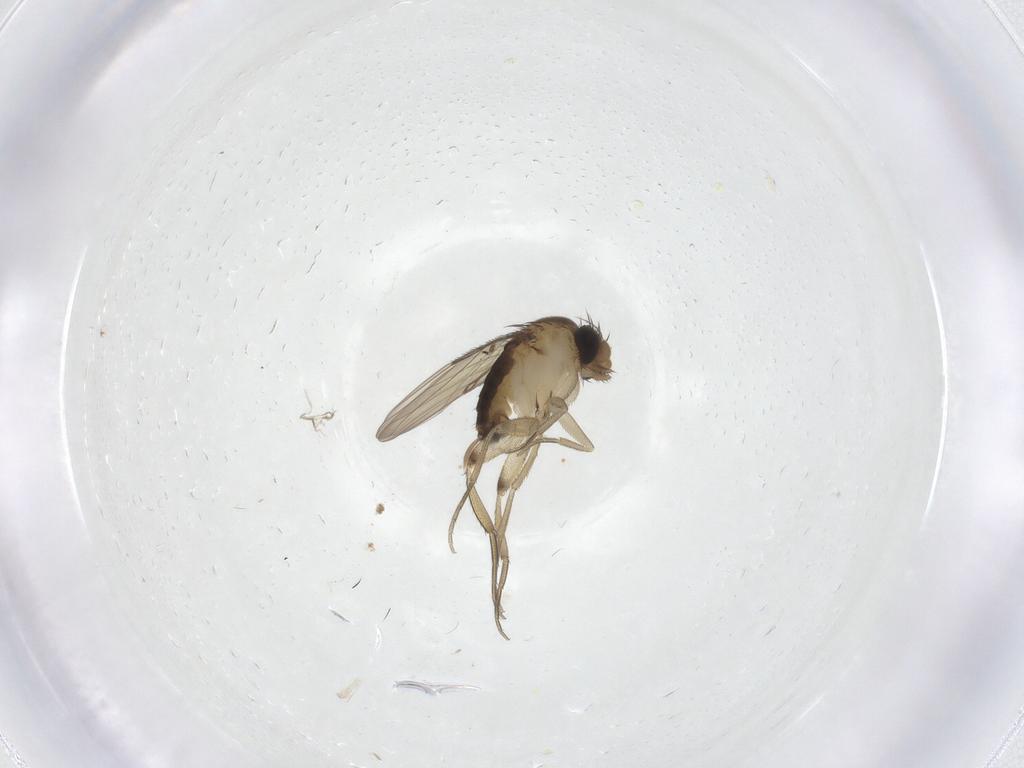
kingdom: Animalia
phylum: Arthropoda
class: Insecta
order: Diptera
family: Phoridae
